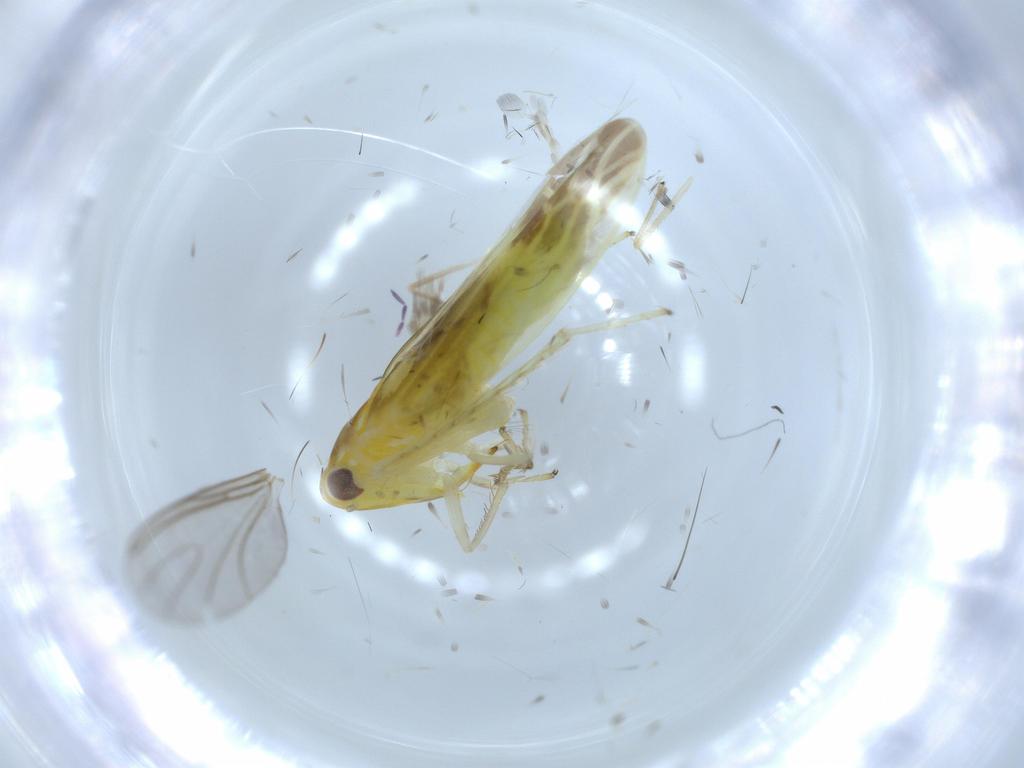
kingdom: Animalia
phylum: Arthropoda
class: Insecta
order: Hemiptera
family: Cicadellidae
